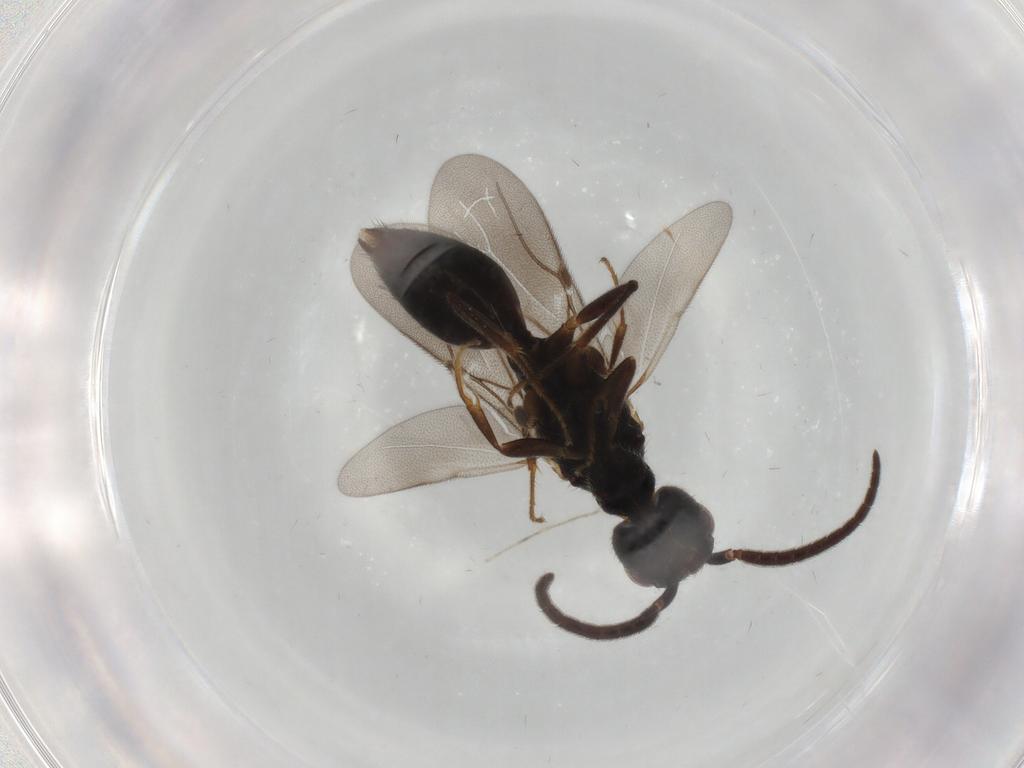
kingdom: Animalia
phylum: Arthropoda
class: Insecta
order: Hymenoptera
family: Bethylidae
